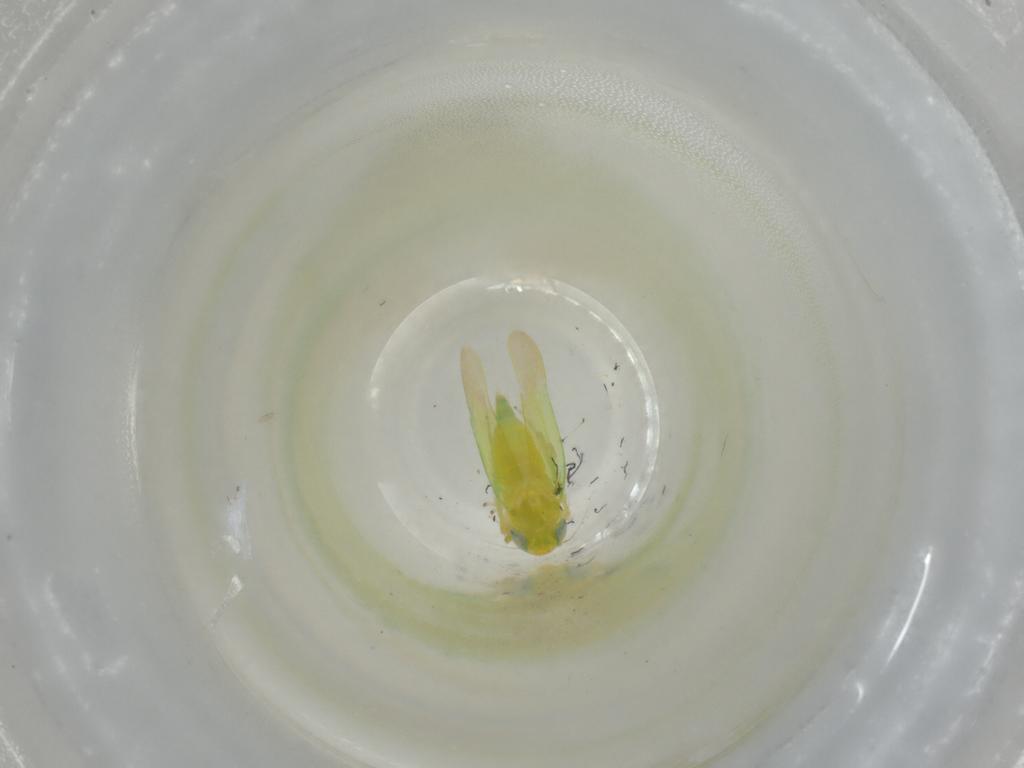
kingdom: Animalia
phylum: Arthropoda
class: Insecta
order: Hemiptera
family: Cicadellidae
